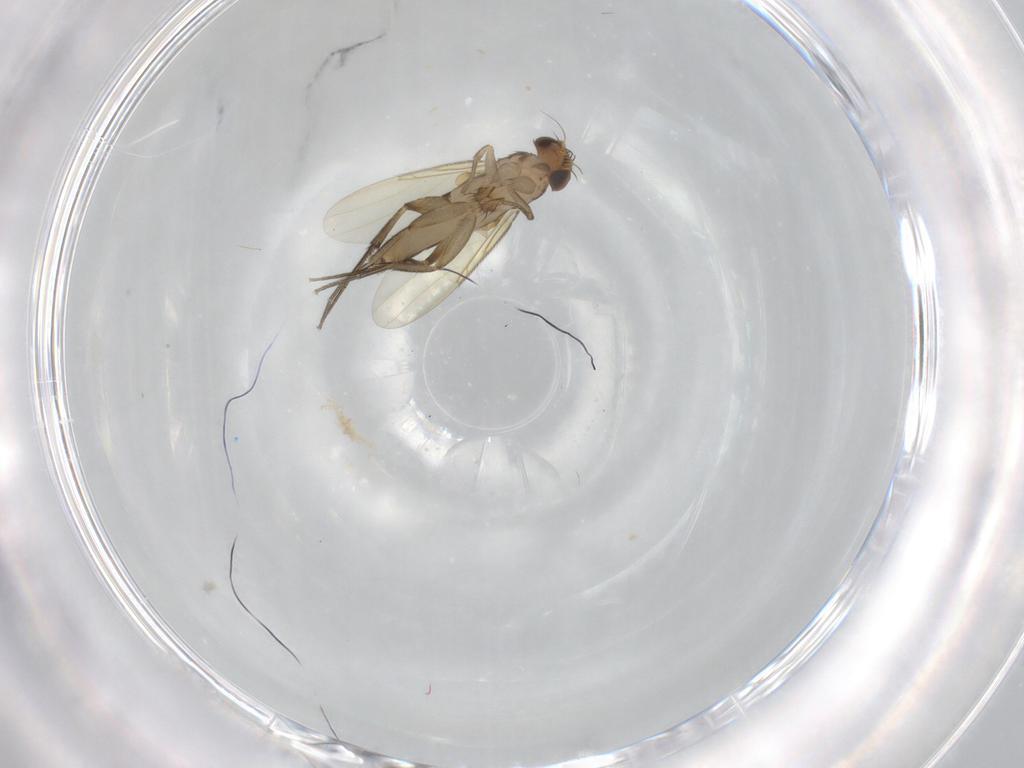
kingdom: Animalia
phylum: Arthropoda
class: Insecta
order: Diptera
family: Phoridae
